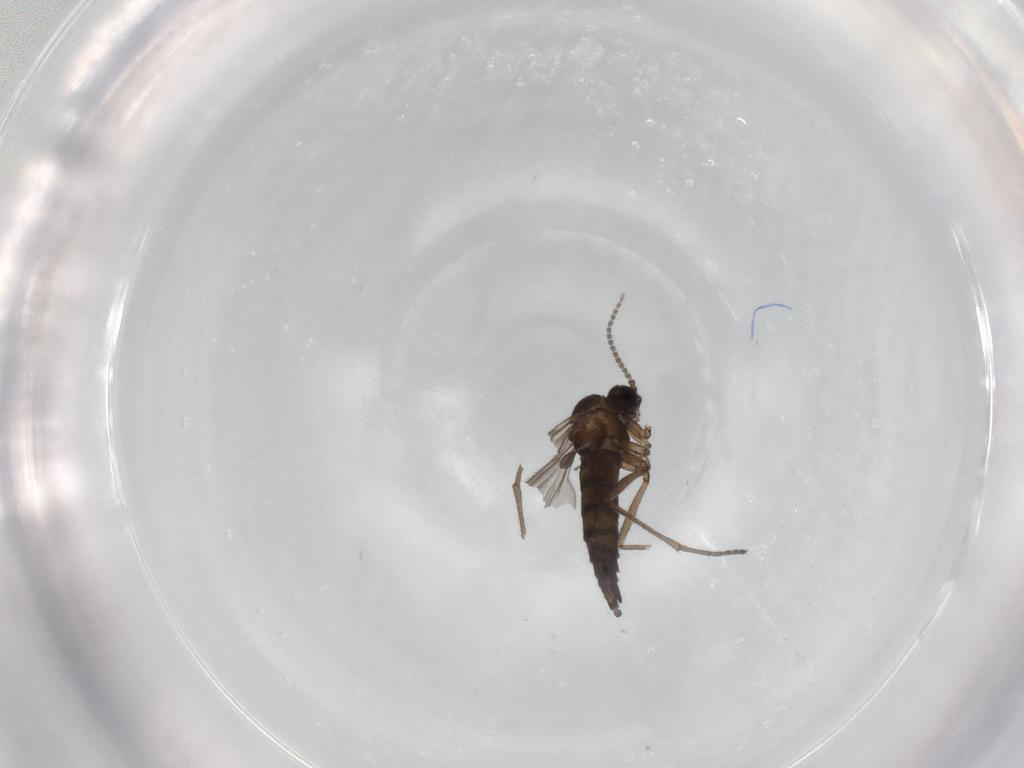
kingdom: Animalia
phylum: Arthropoda
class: Insecta
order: Diptera
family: Sciaridae
